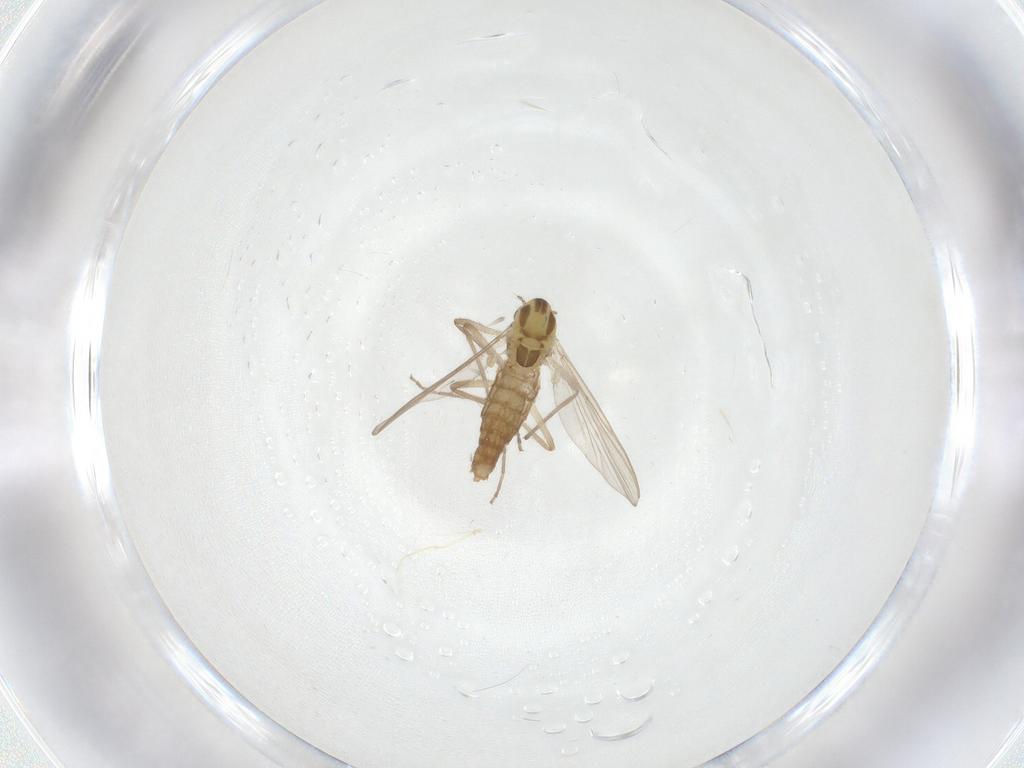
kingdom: Animalia
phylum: Arthropoda
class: Insecta
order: Diptera
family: Chironomidae
